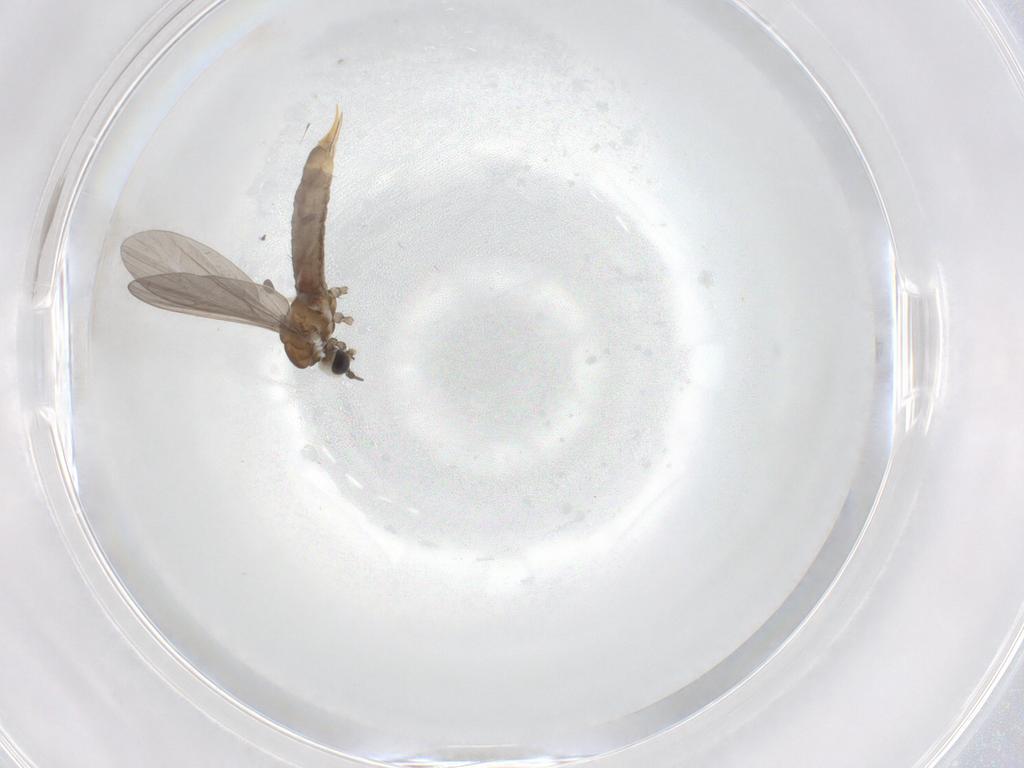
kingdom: Animalia
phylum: Arthropoda
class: Insecta
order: Diptera
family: Limoniidae
